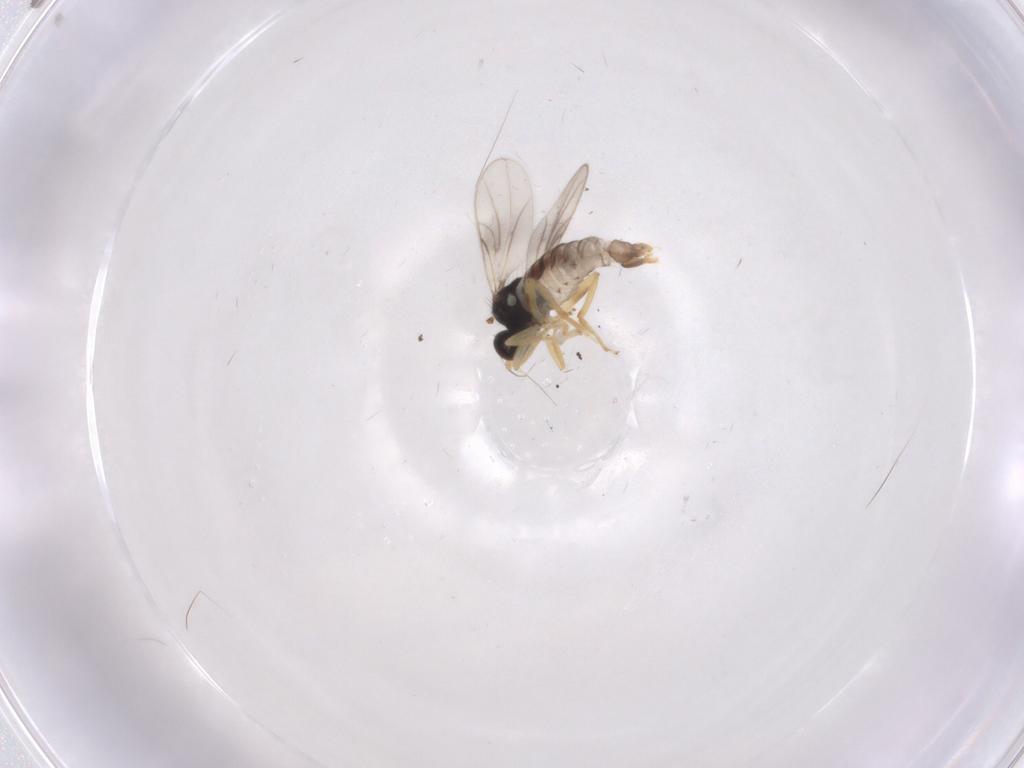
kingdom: Animalia
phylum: Arthropoda
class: Insecta
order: Diptera
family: Hybotidae
